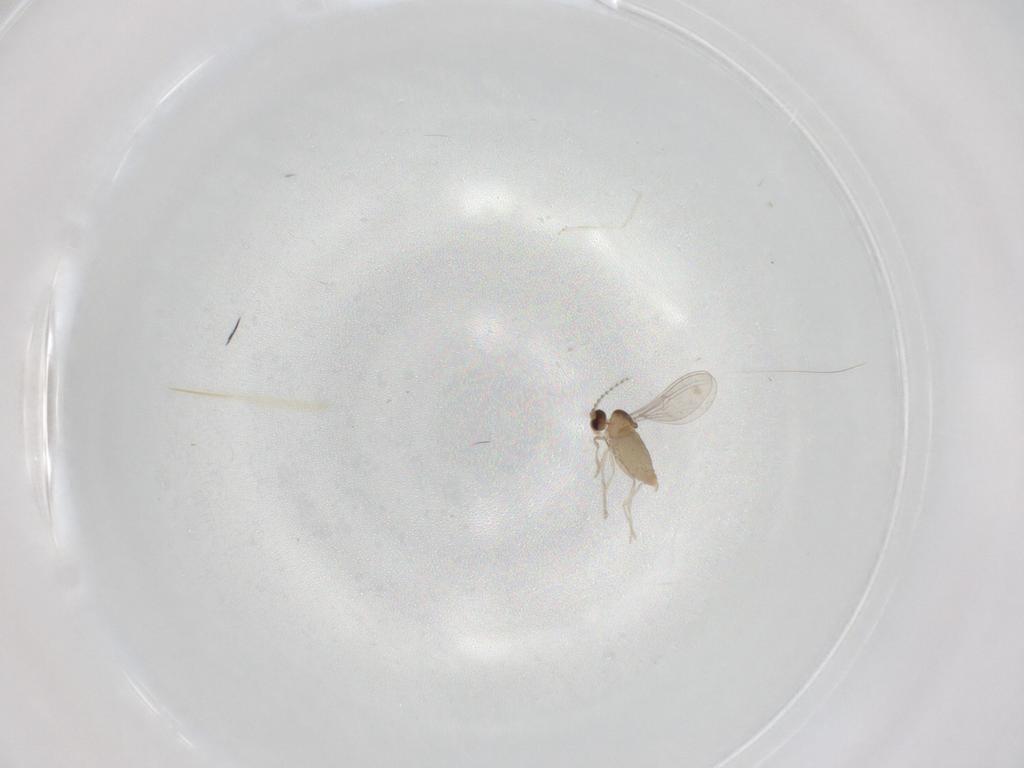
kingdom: Animalia
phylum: Arthropoda
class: Insecta
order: Diptera
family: Cecidomyiidae
